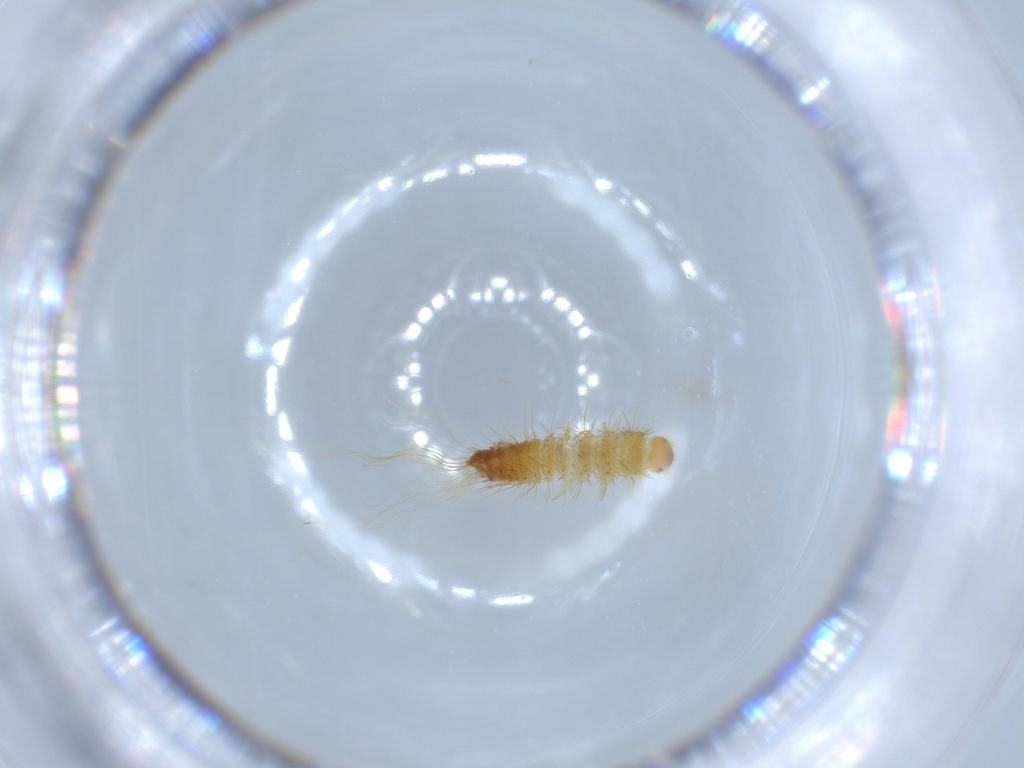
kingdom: Animalia
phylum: Arthropoda
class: Insecta
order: Coleoptera
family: Dermestidae
